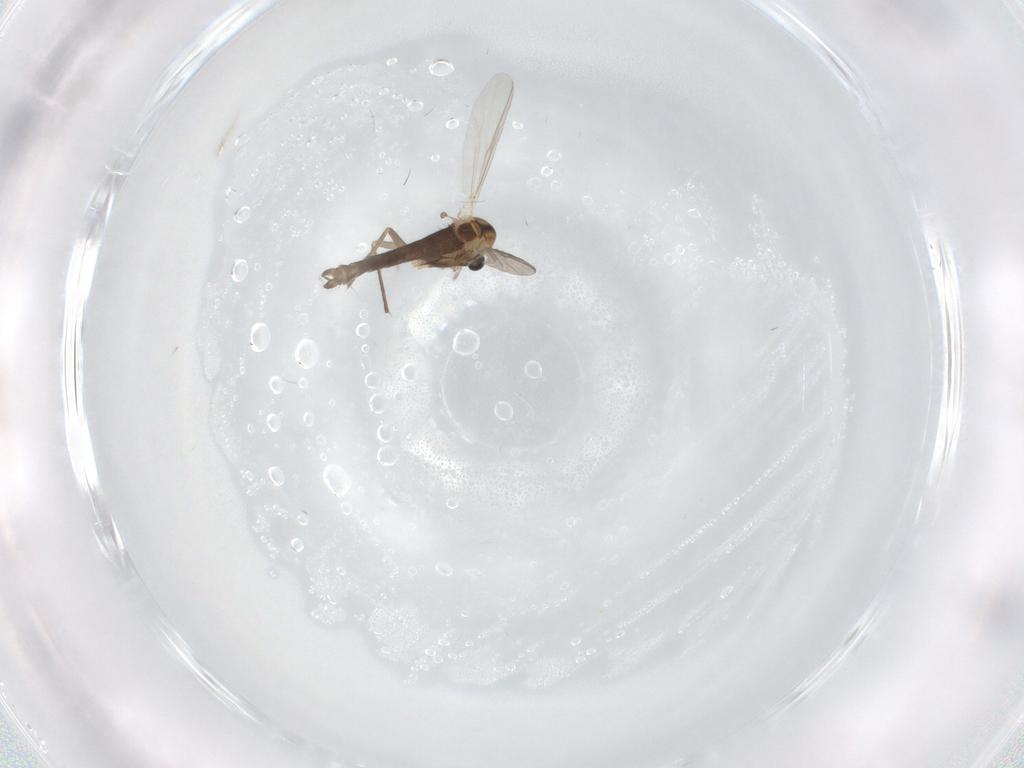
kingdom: Animalia
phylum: Arthropoda
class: Insecta
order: Diptera
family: Chironomidae
